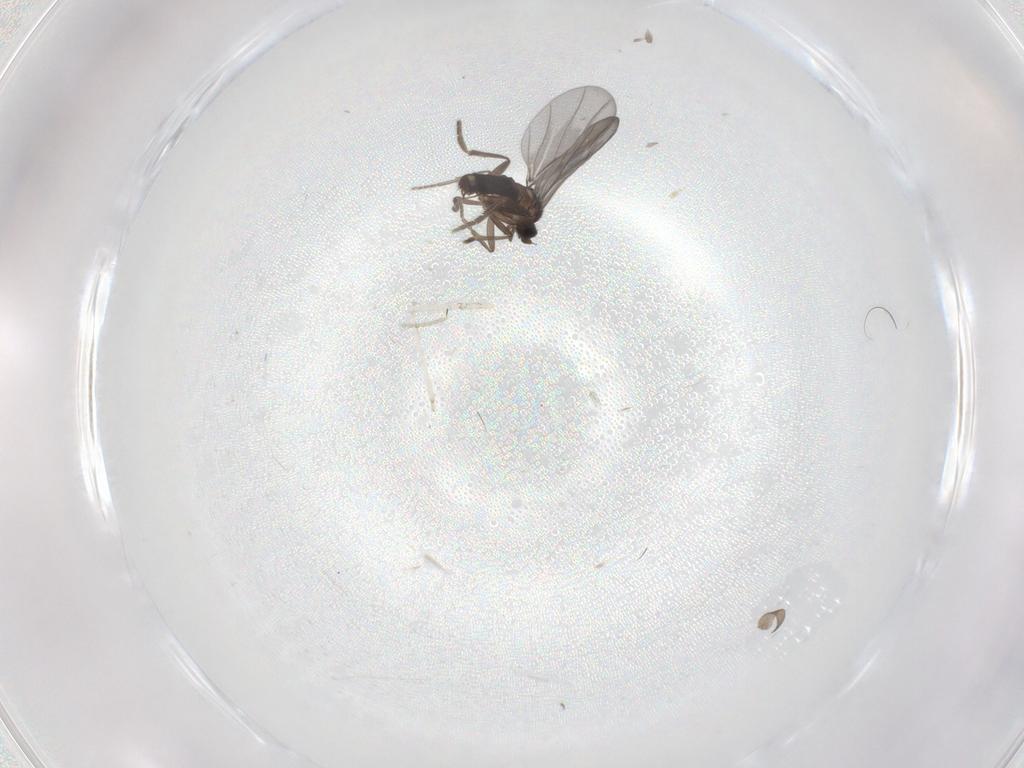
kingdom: Animalia
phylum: Arthropoda
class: Insecta
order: Diptera
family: Phoridae
